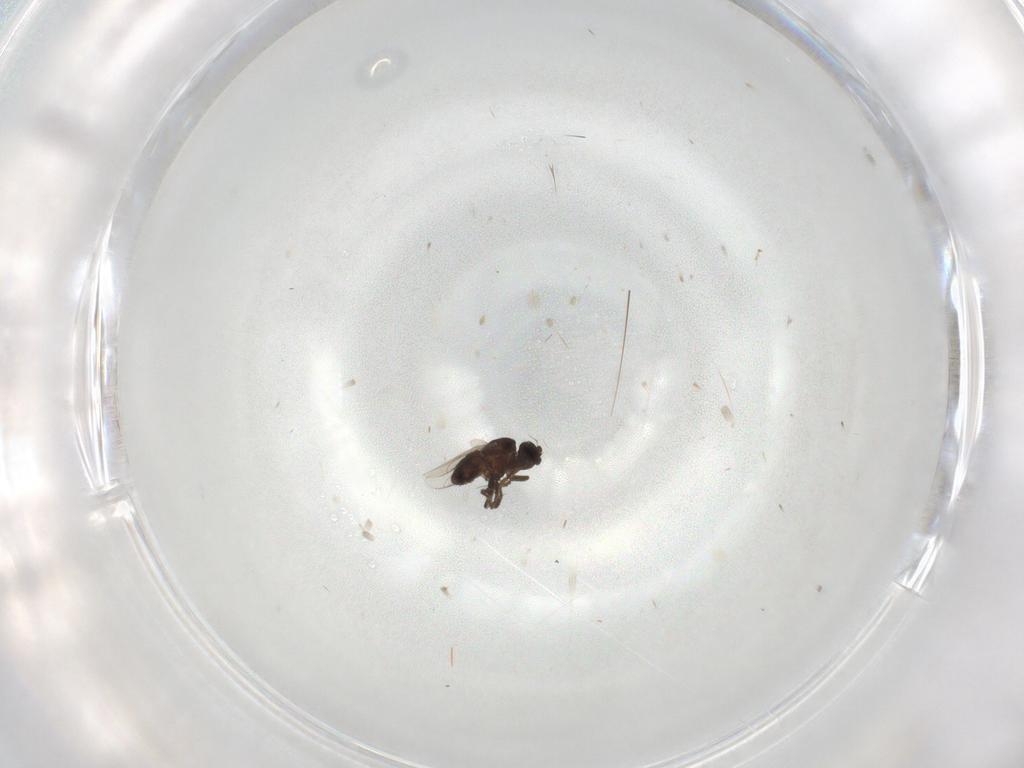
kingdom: Animalia
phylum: Arthropoda
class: Insecta
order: Diptera
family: Sphaeroceridae
